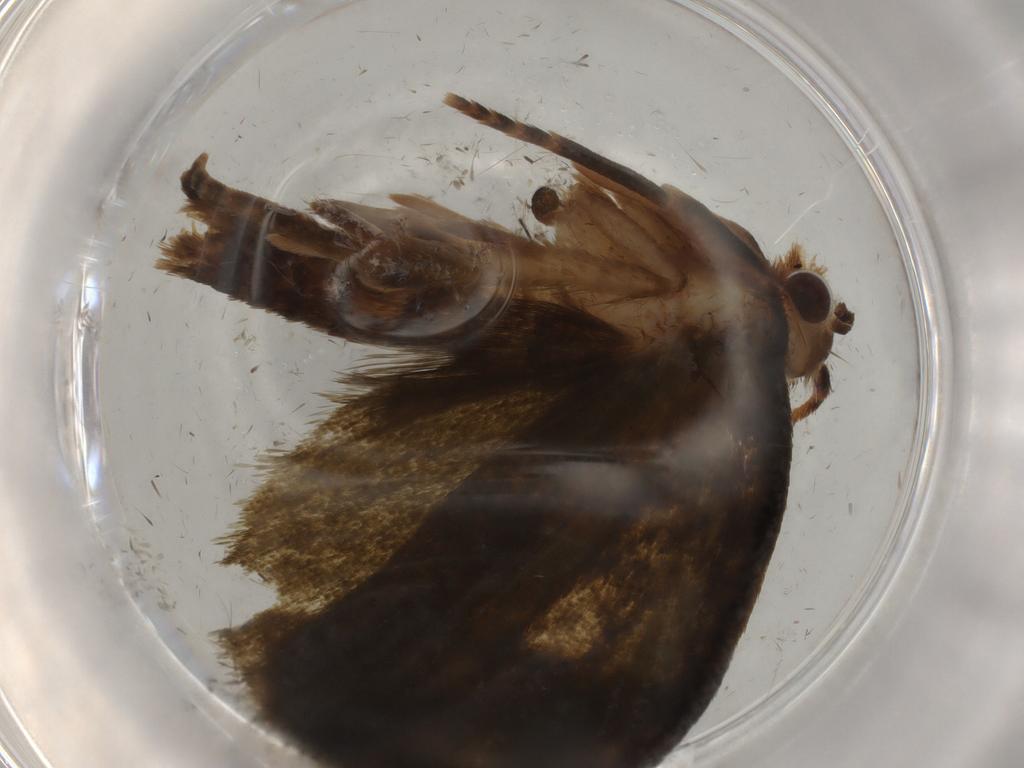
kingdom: Animalia
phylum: Arthropoda
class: Insecta
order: Lepidoptera
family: Geometridae
